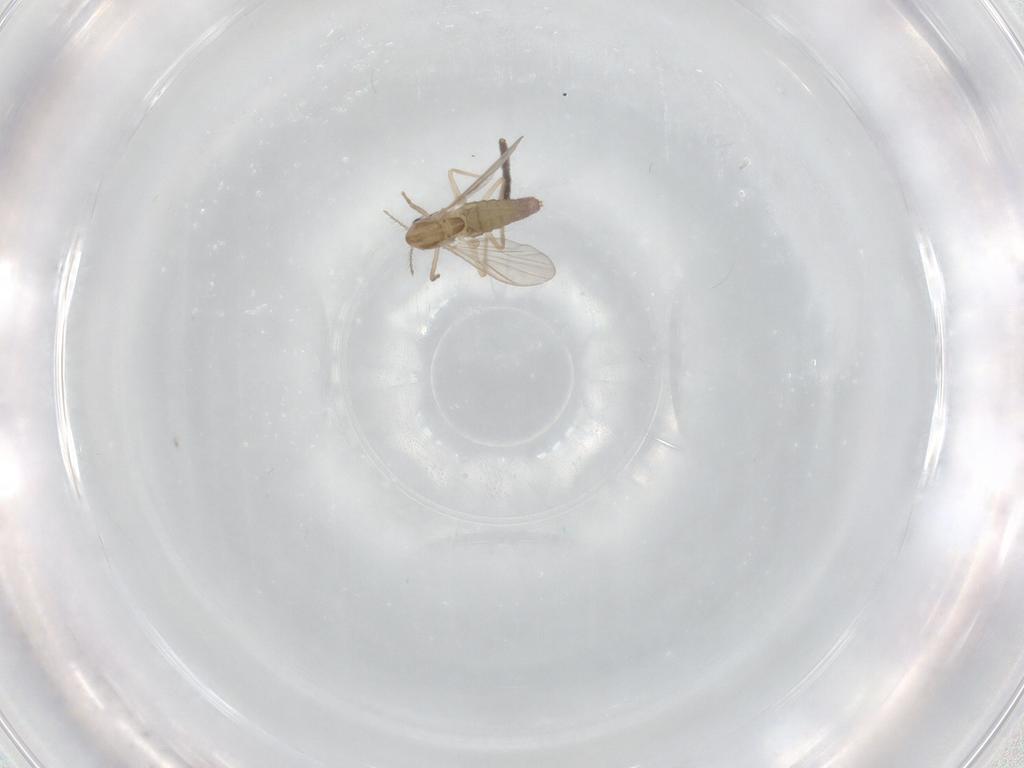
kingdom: Animalia
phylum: Arthropoda
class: Insecta
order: Diptera
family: Chironomidae
